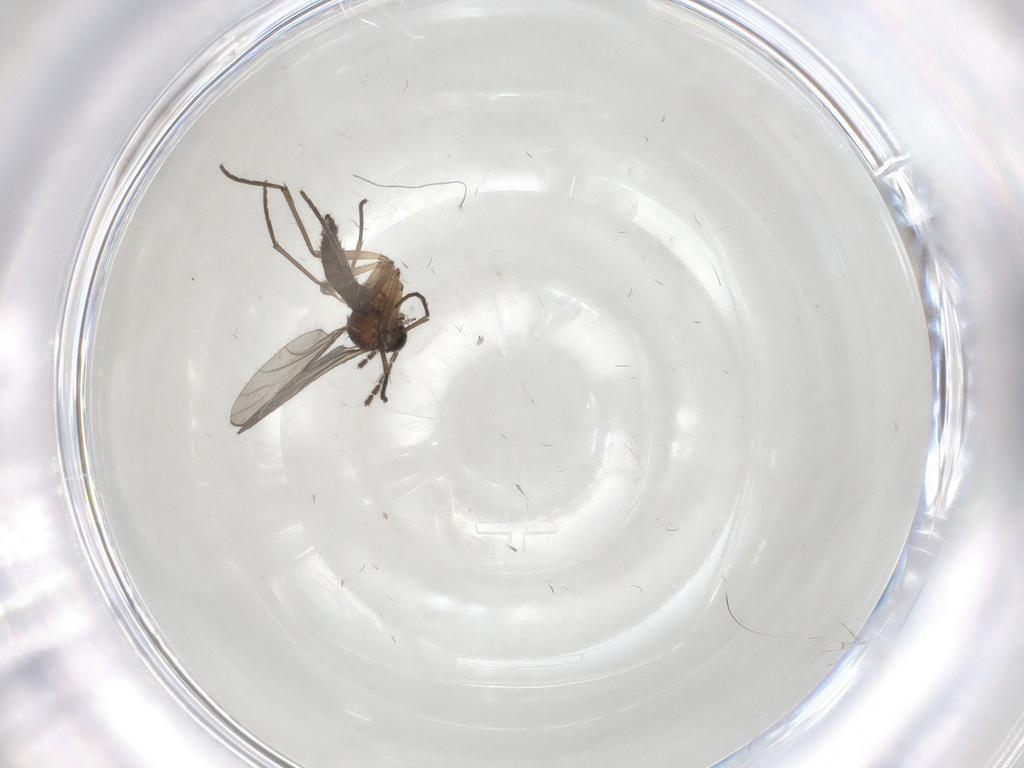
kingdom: Animalia
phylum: Arthropoda
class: Insecta
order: Diptera
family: Sciaridae
